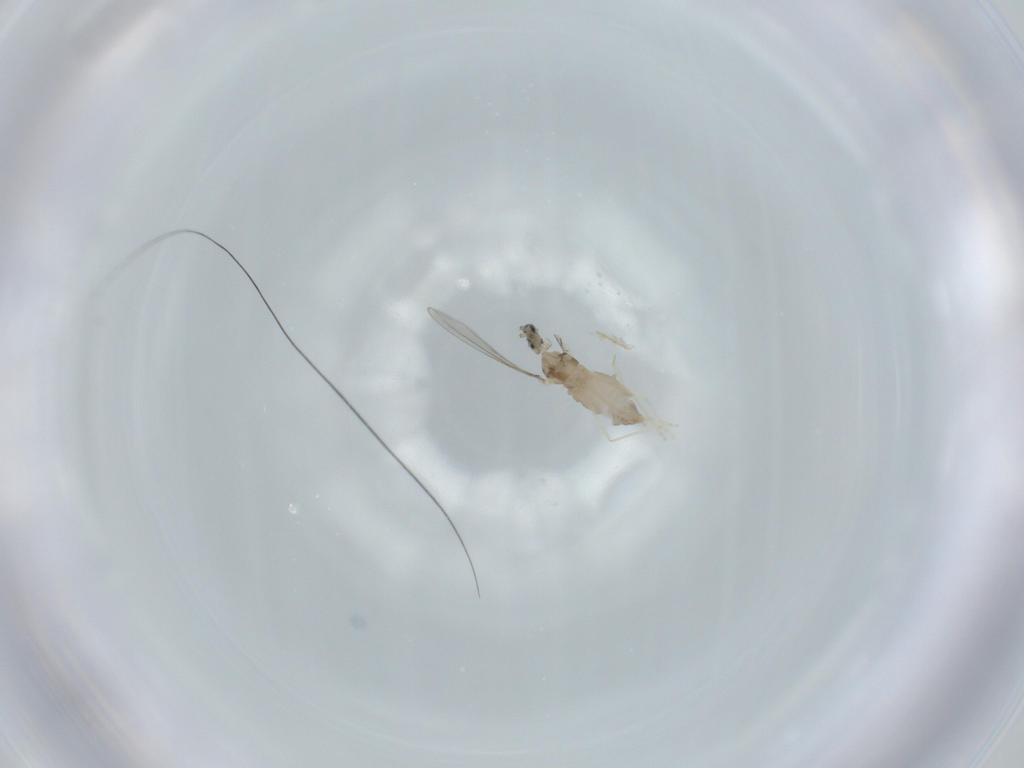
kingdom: Animalia
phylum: Arthropoda
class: Insecta
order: Diptera
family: Cecidomyiidae
